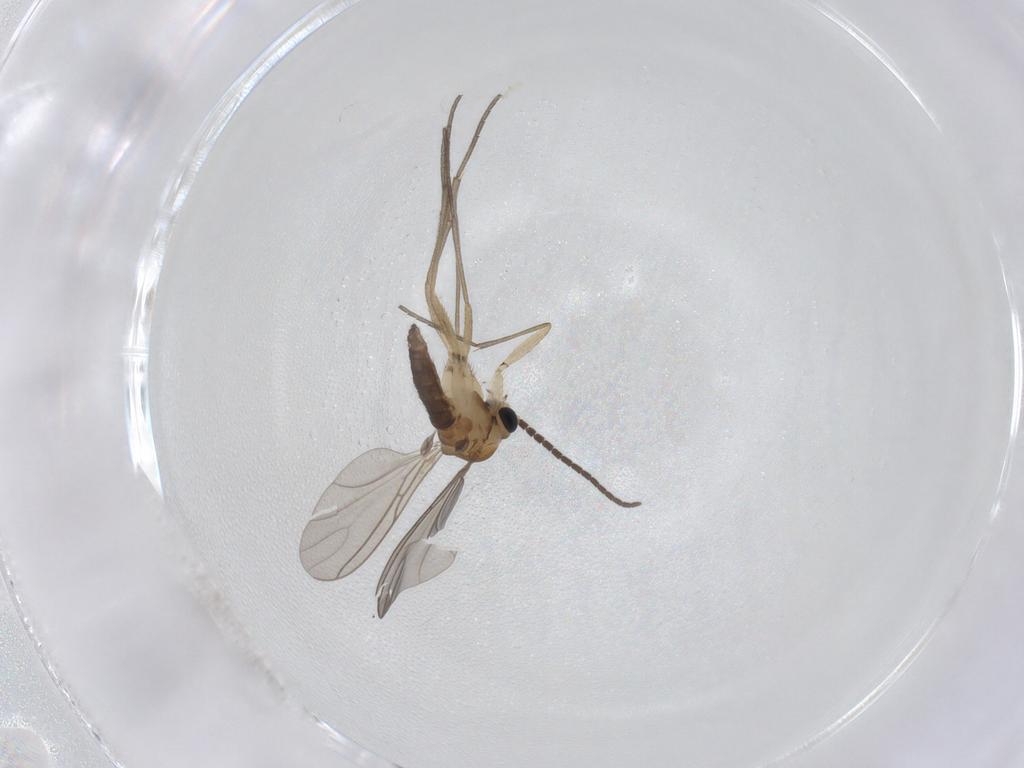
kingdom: Animalia
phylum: Arthropoda
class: Insecta
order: Diptera
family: Sciaridae
